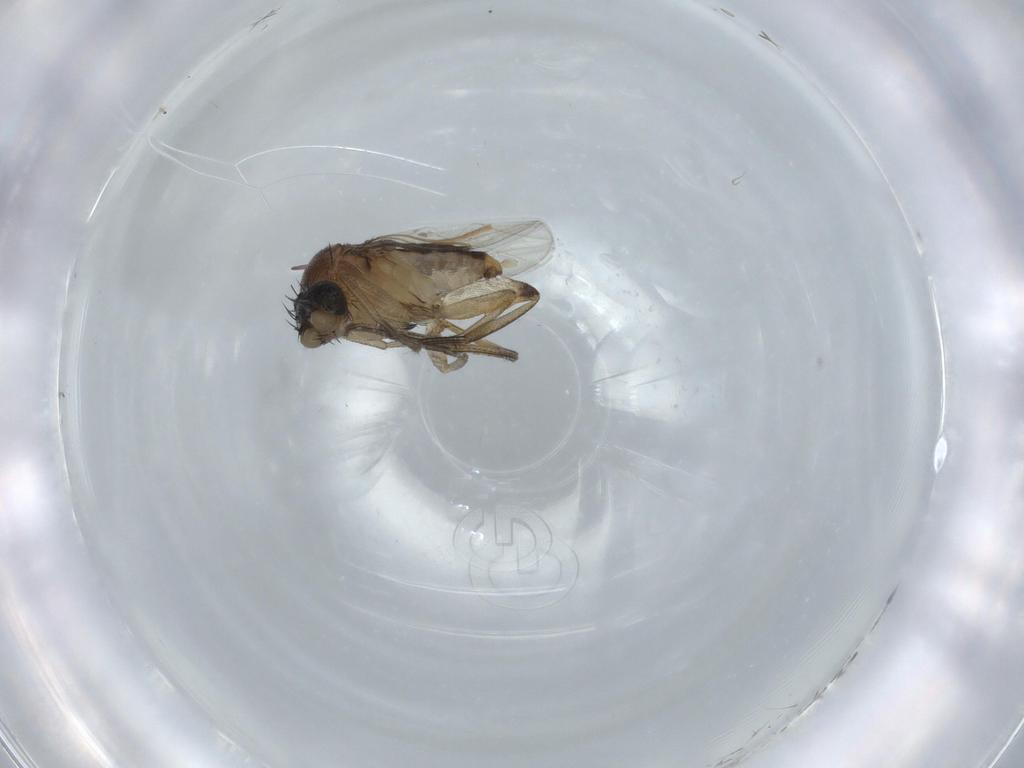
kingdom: Animalia
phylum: Arthropoda
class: Insecta
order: Diptera
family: Phoridae
